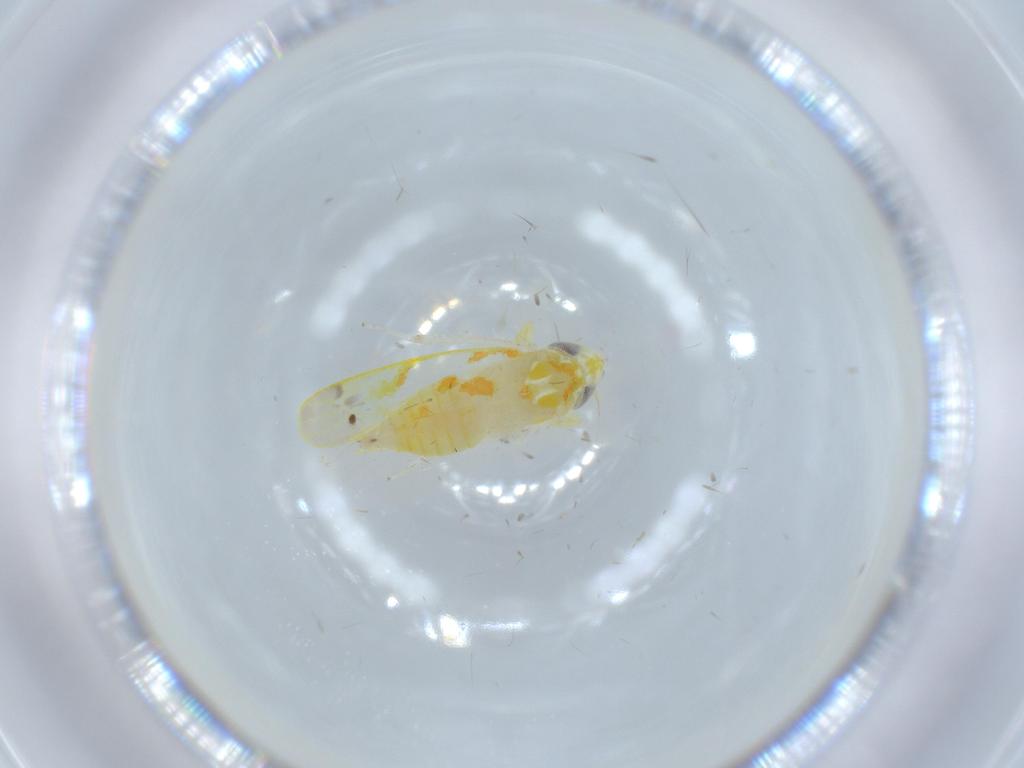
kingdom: Animalia
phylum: Arthropoda
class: Insecta
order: Hemiptera
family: Cicadellidae
